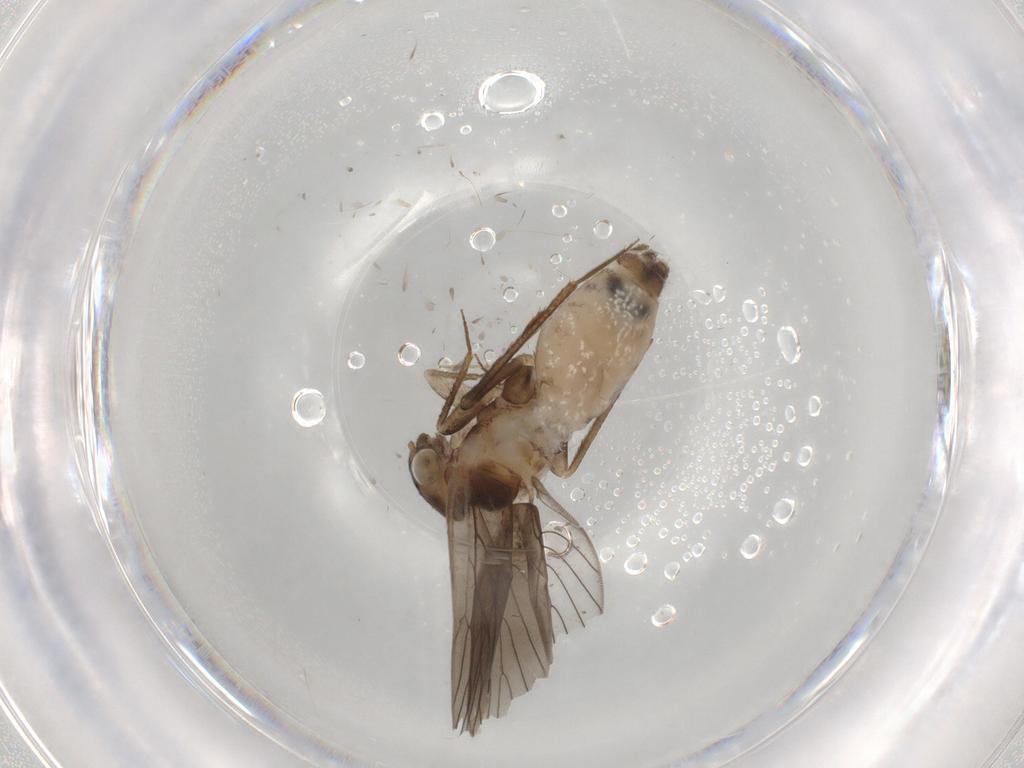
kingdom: Animalia
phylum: Arthropoda
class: Insecta
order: Psocodea
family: Lepidopsocidae
